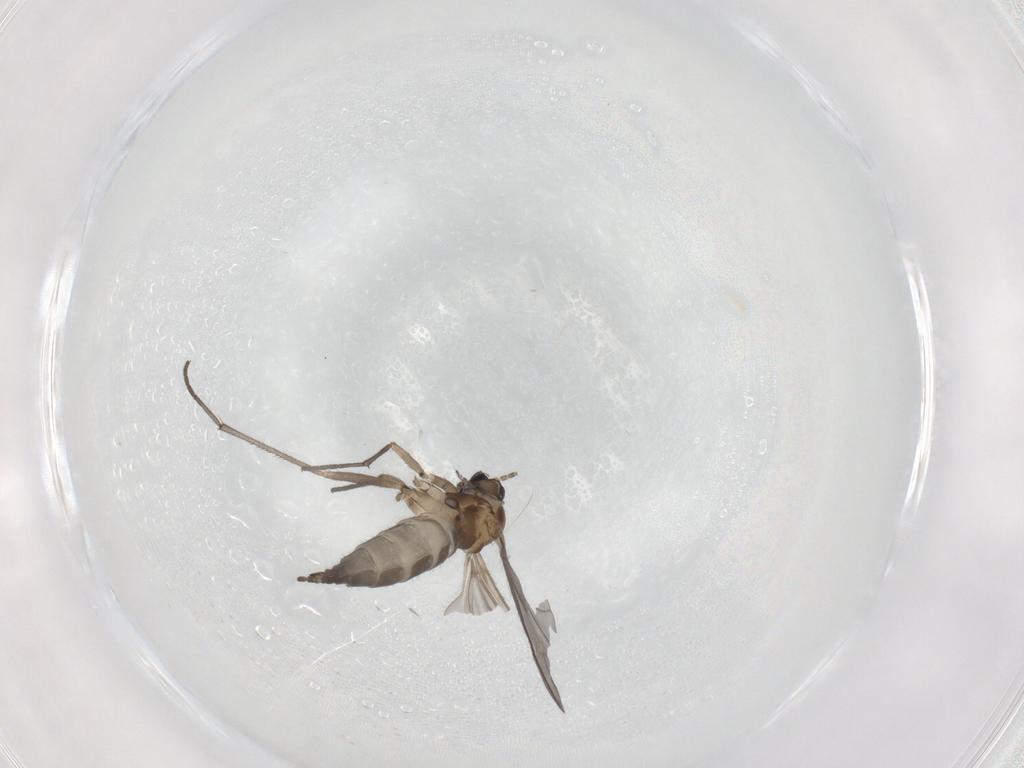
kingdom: Animalia
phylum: Arthropoda
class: Insecta
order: Diptera
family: Sciaridae
